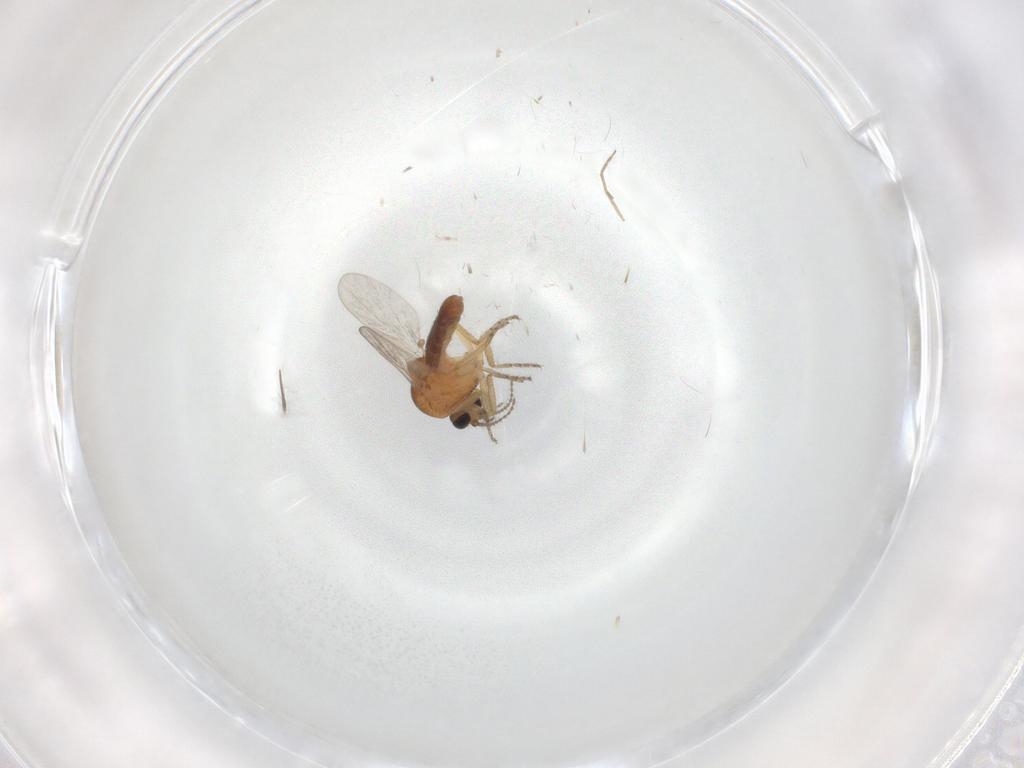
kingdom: Animalia
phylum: Arthropoda
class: Insecta
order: Diptera
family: Ceratopogonidae
